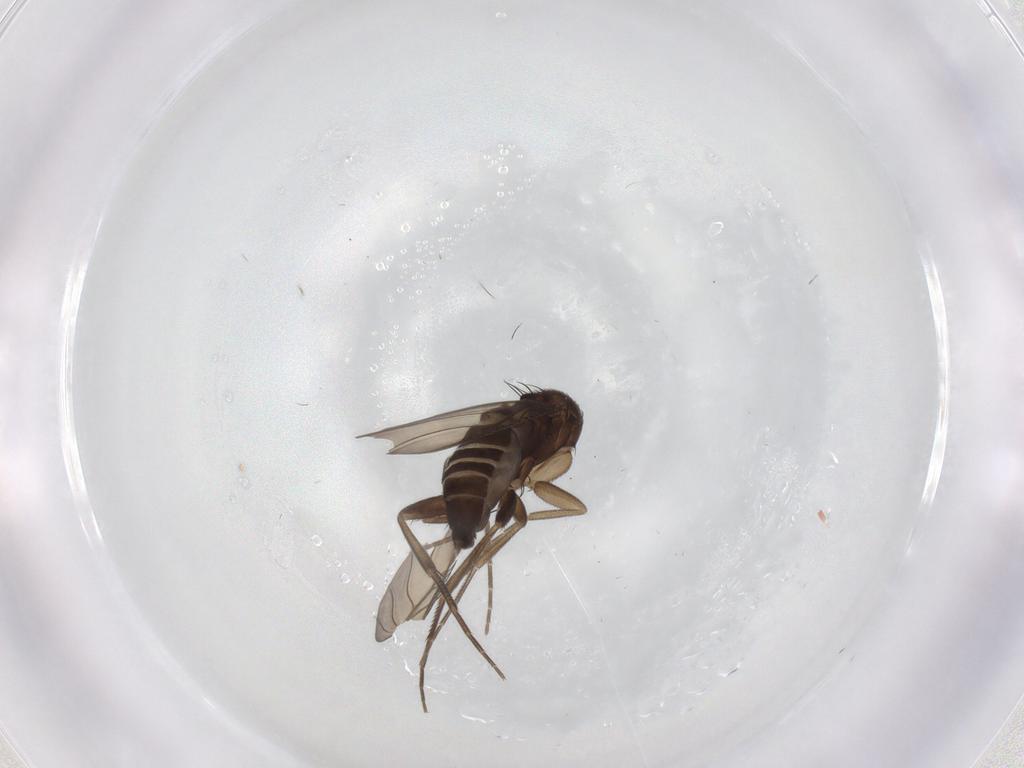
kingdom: Animalia
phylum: Arthropoda
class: Insecta
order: Diptera
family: Phoridae
